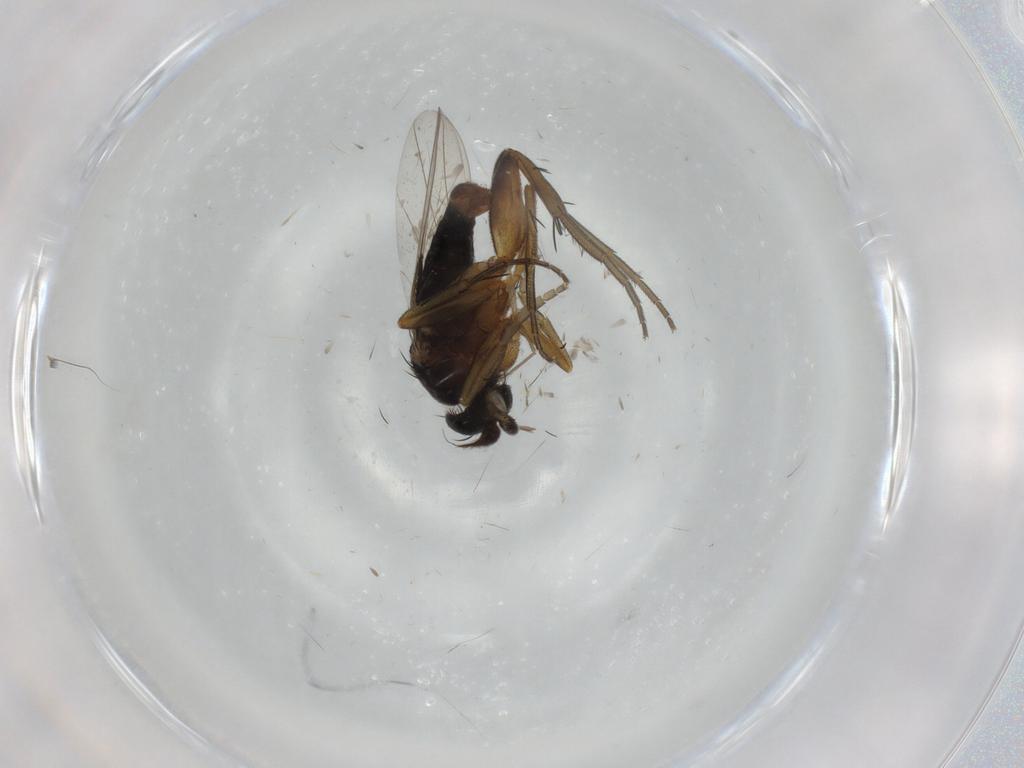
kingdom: Animalia
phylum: Arthropoda
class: Insecta
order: Diptera
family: Phoridae
